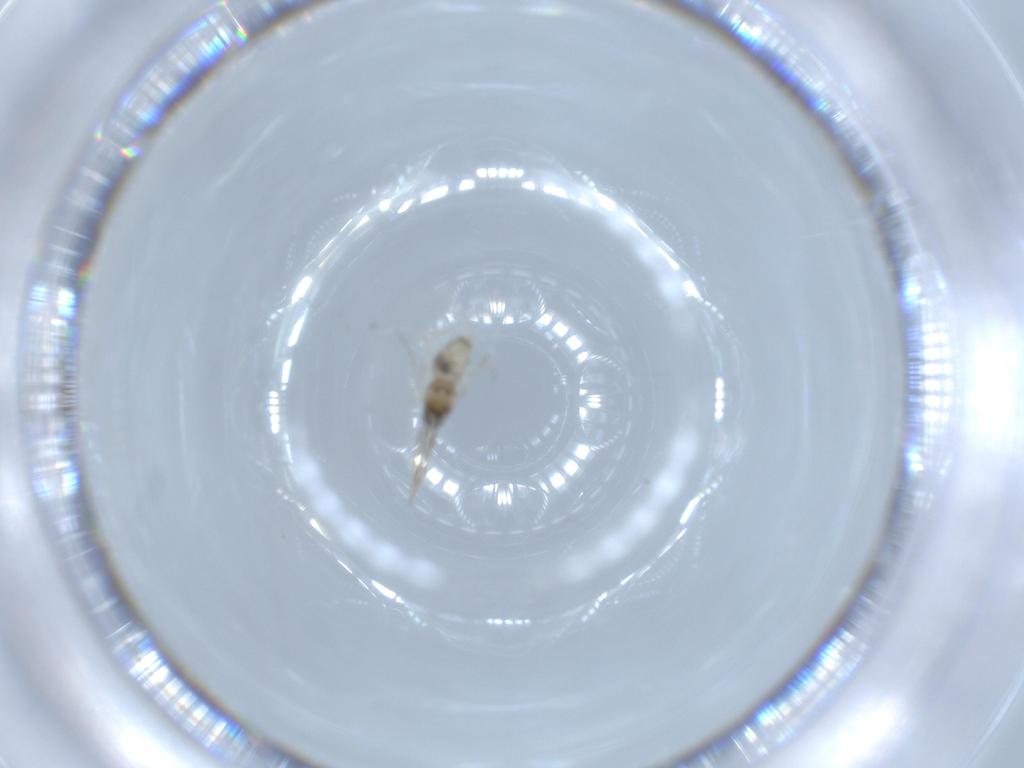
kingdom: Animalia
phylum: Arthropoda
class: Insecta
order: Diptera
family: Cecidomyiidae
